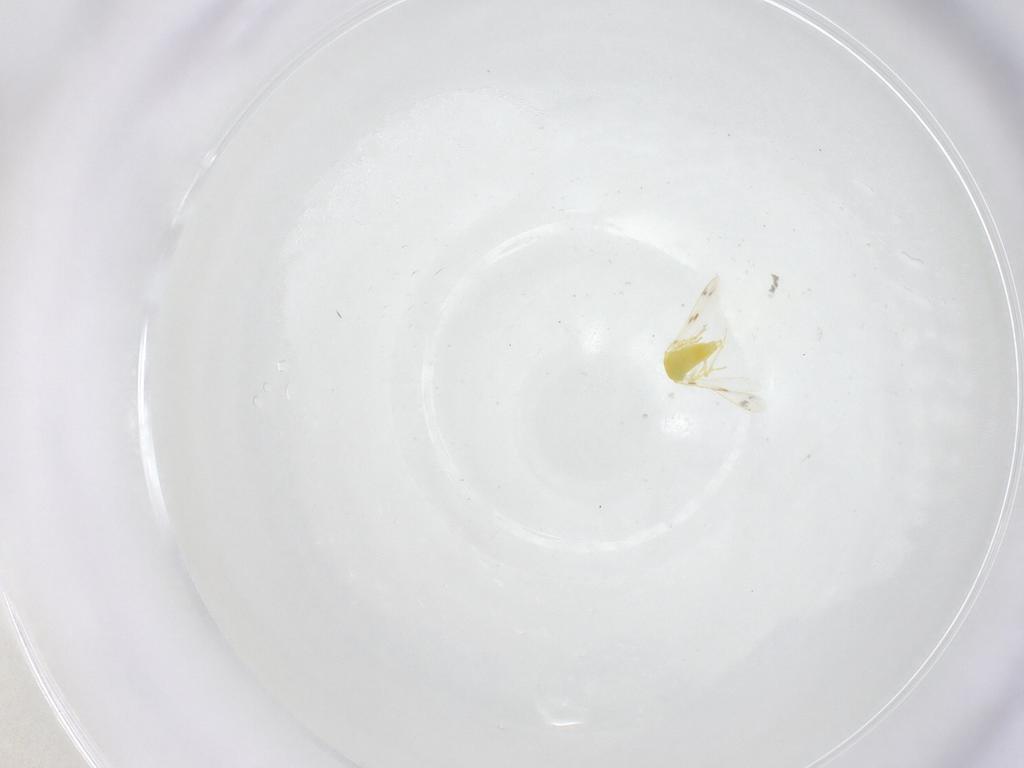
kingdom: Animalia
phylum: Arthropoda
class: Insecta
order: Hemiptera
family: Aleyrodidae
